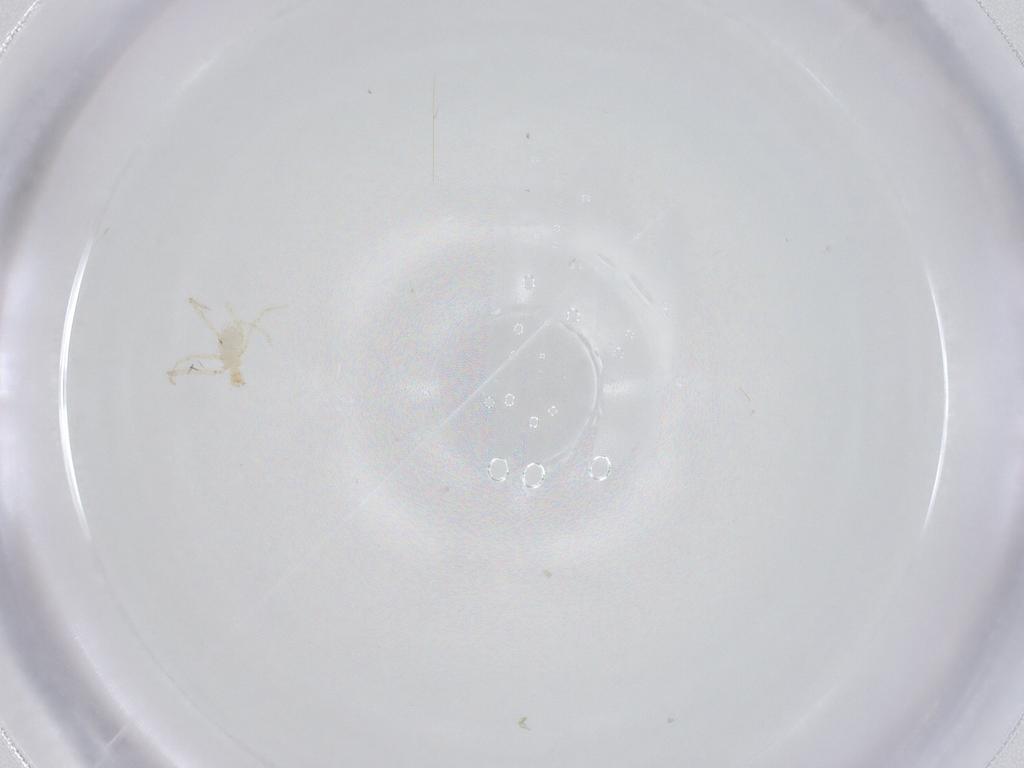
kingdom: Animalia
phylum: Arthropoda
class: Arachnida
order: Trombidiformes
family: Erythraeidae
